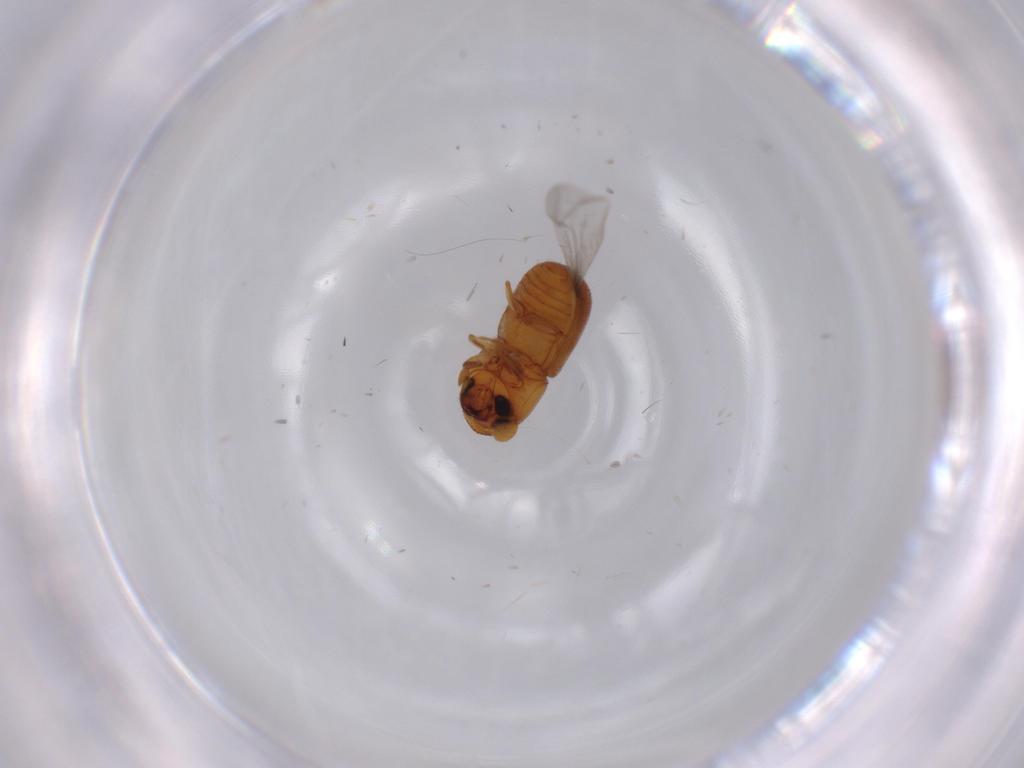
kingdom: Animalia
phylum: Arthropoda
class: Insecta
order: Coleoptera
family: Curculionidae
